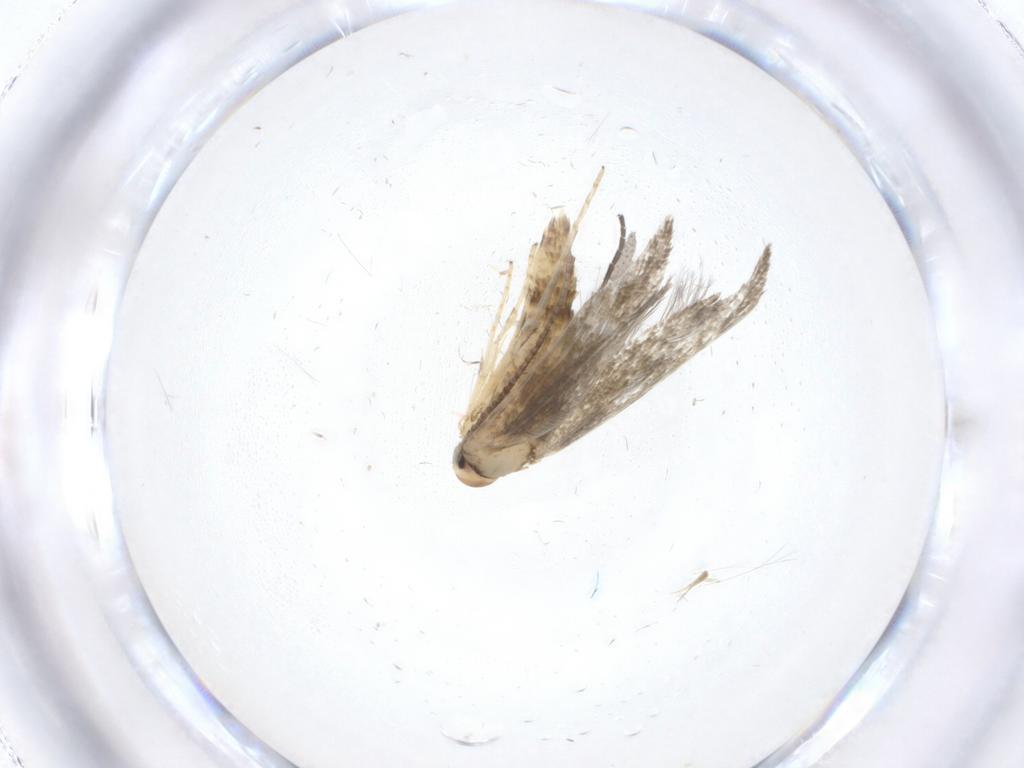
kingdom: Animalia
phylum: Arthropoda
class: Insecta
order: Lepidoptera
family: Stathmopodidae
